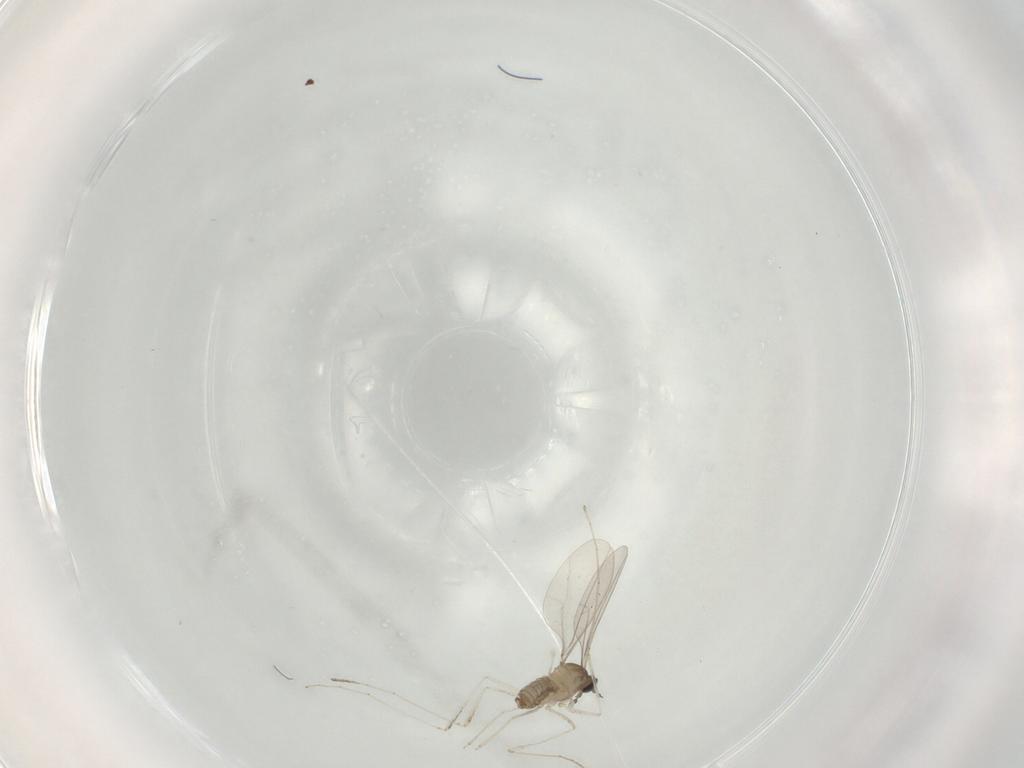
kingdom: Animalia
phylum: Arthropoda
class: Insecta
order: Diptera
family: Cecidomyiidae
